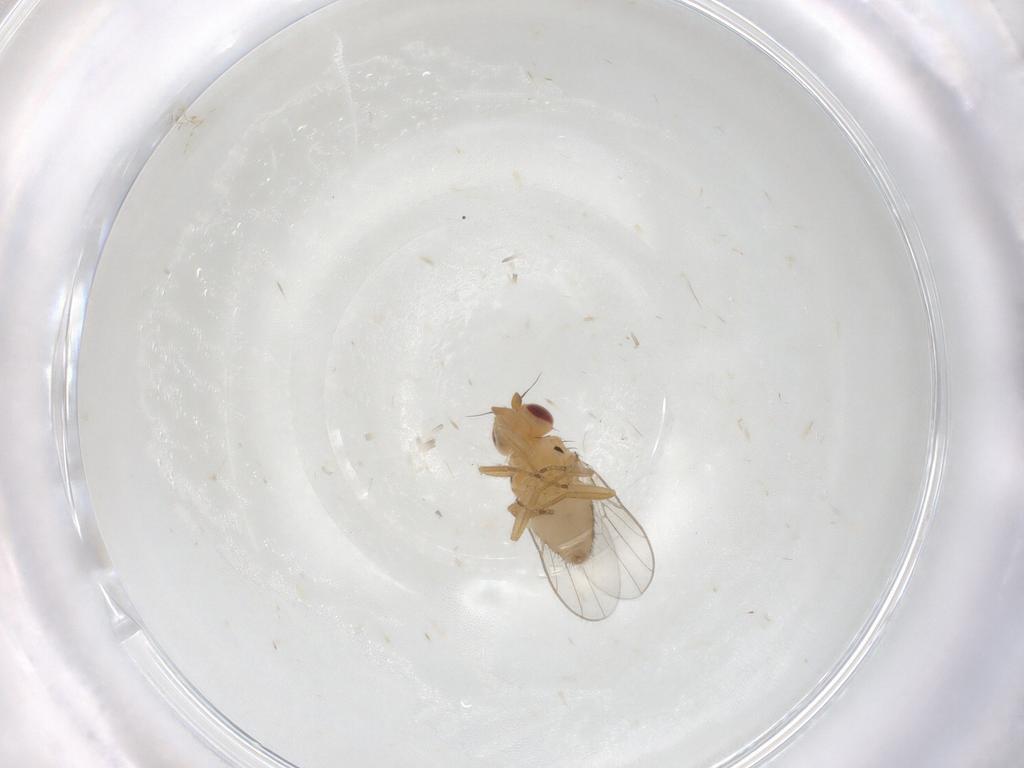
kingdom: Animalia
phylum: Arthropoda
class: Insecta
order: Diptera
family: Chloropidae
